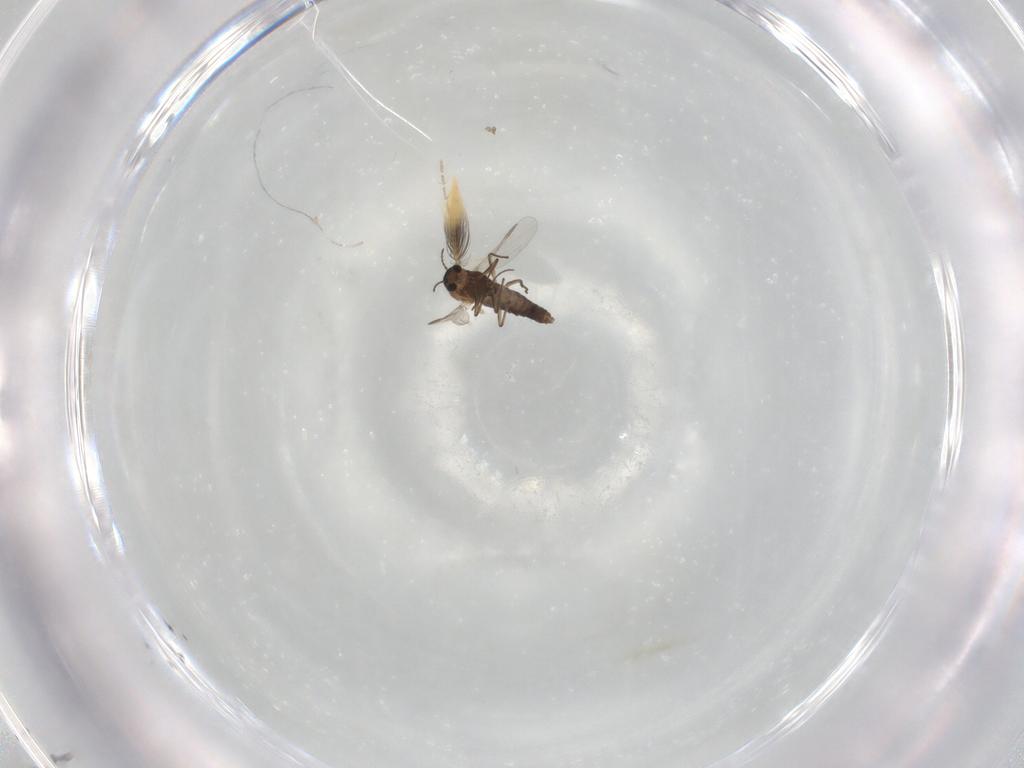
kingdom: Animalia
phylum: Arthropoda
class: Insecta
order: Diptera
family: Chironomidae
